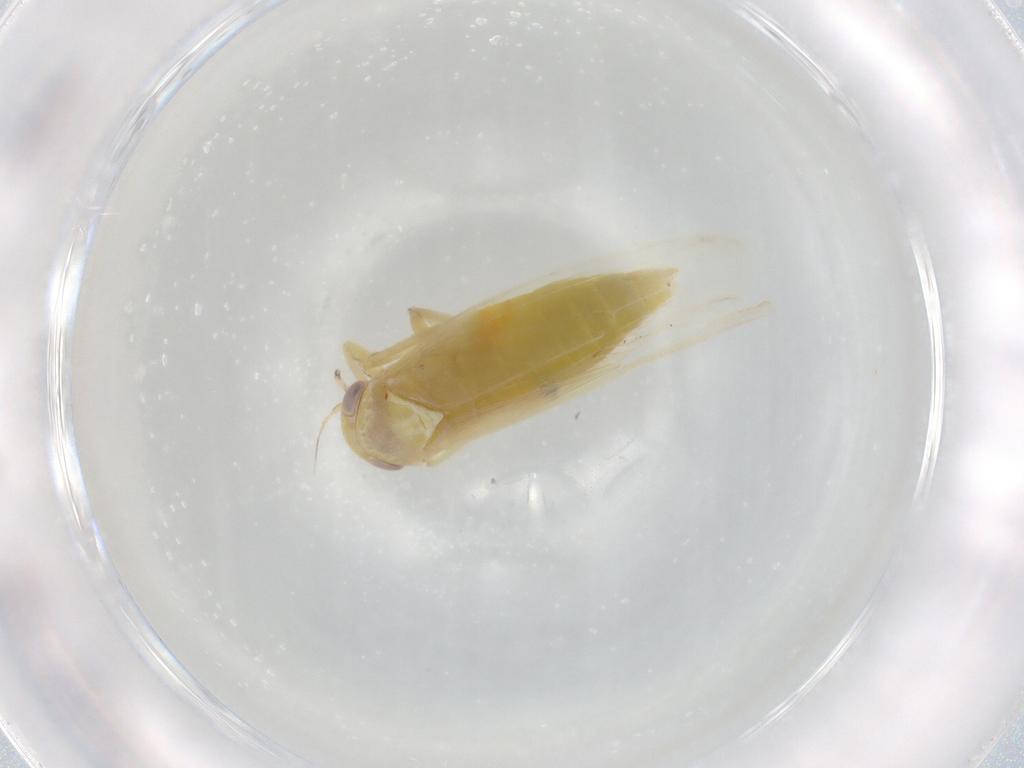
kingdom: Animalia
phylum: Arthropoda
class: Insecta
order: Hemiptera
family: Cicadellidae
